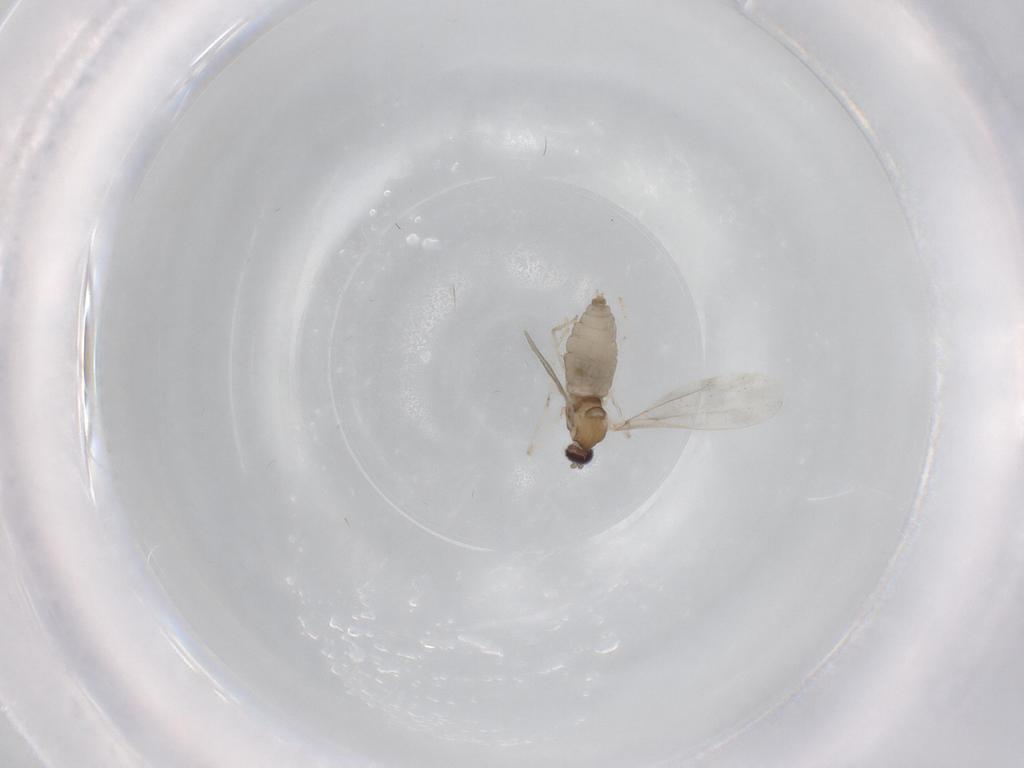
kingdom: Animalia
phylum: Arthropoda
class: Insecta
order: Diptera
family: Cecidomyiidae
